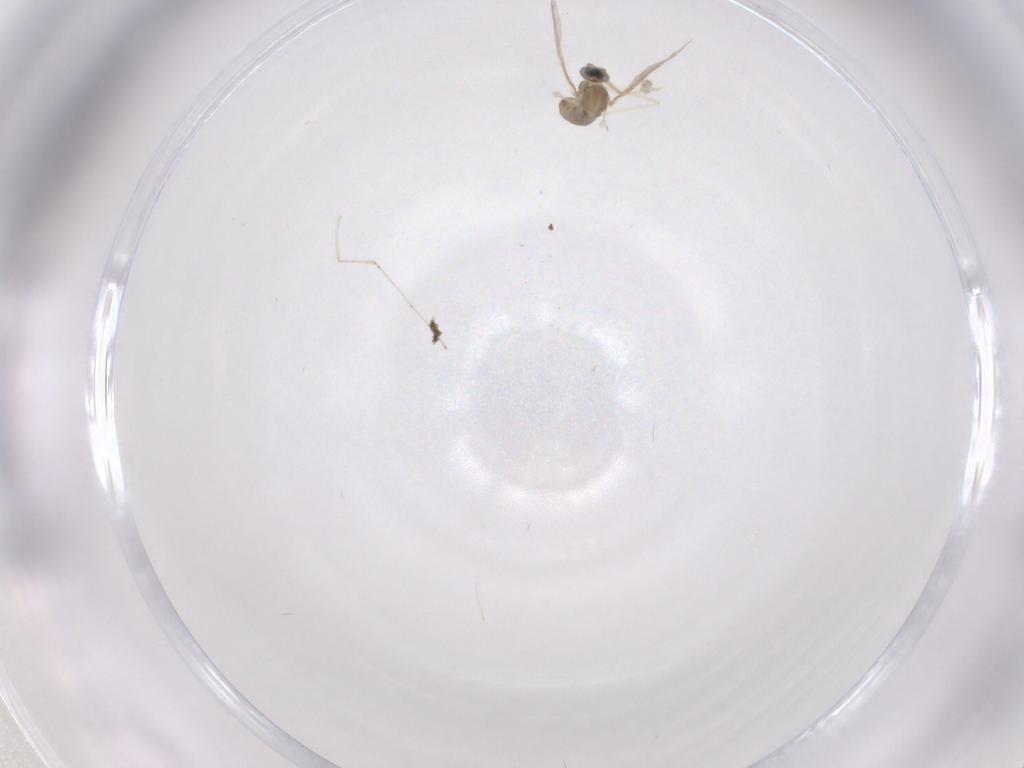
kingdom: Animalia
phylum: Arthropoda
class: Insecta
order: Diptera
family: Cecidomyiidae
